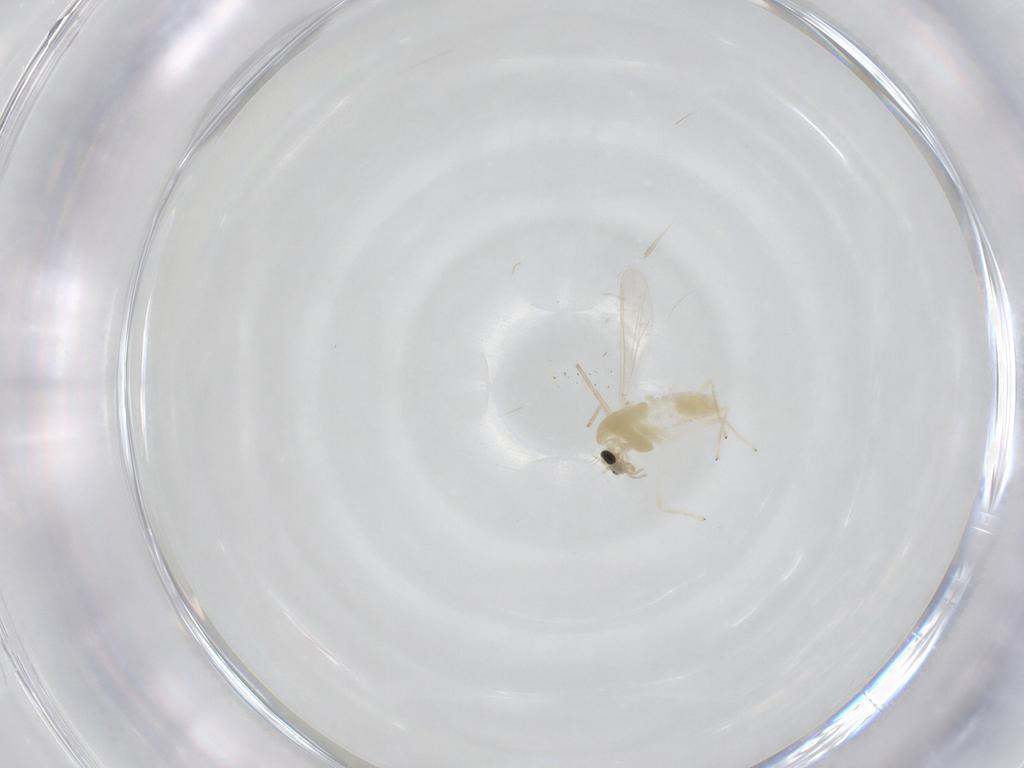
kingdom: Animalia
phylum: Arthropoda
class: Insecta
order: Diptera
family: Chironomidae
